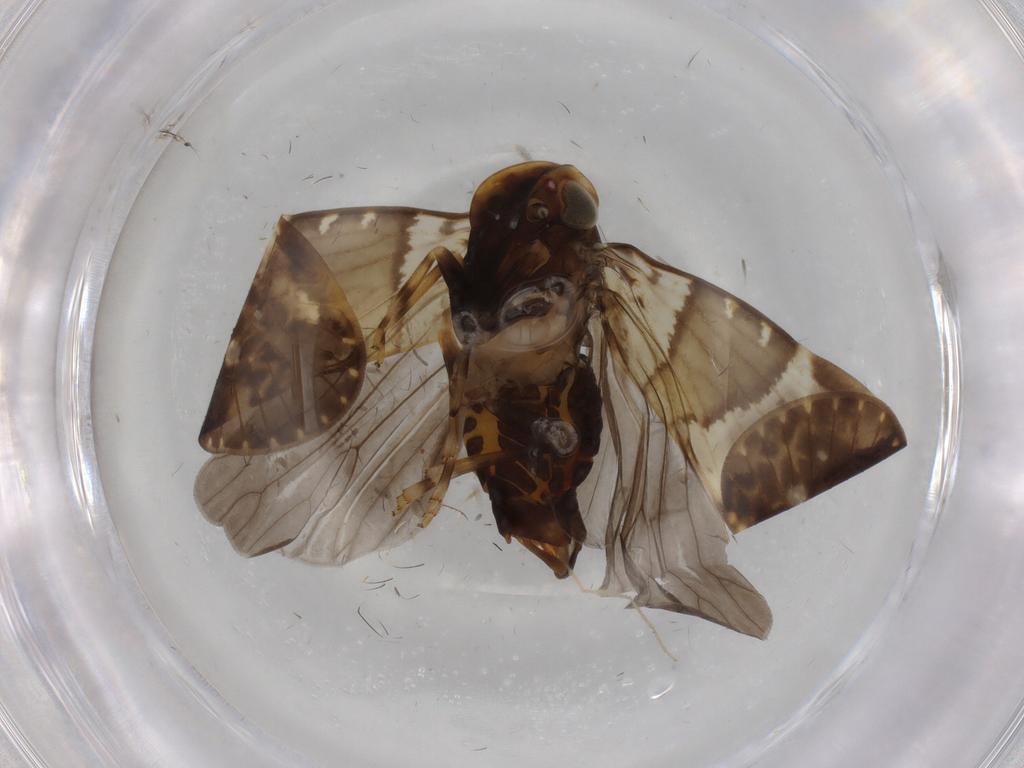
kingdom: Animalia
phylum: Arthropoda
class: Insecta
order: Hemiptera
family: Cixiidae
